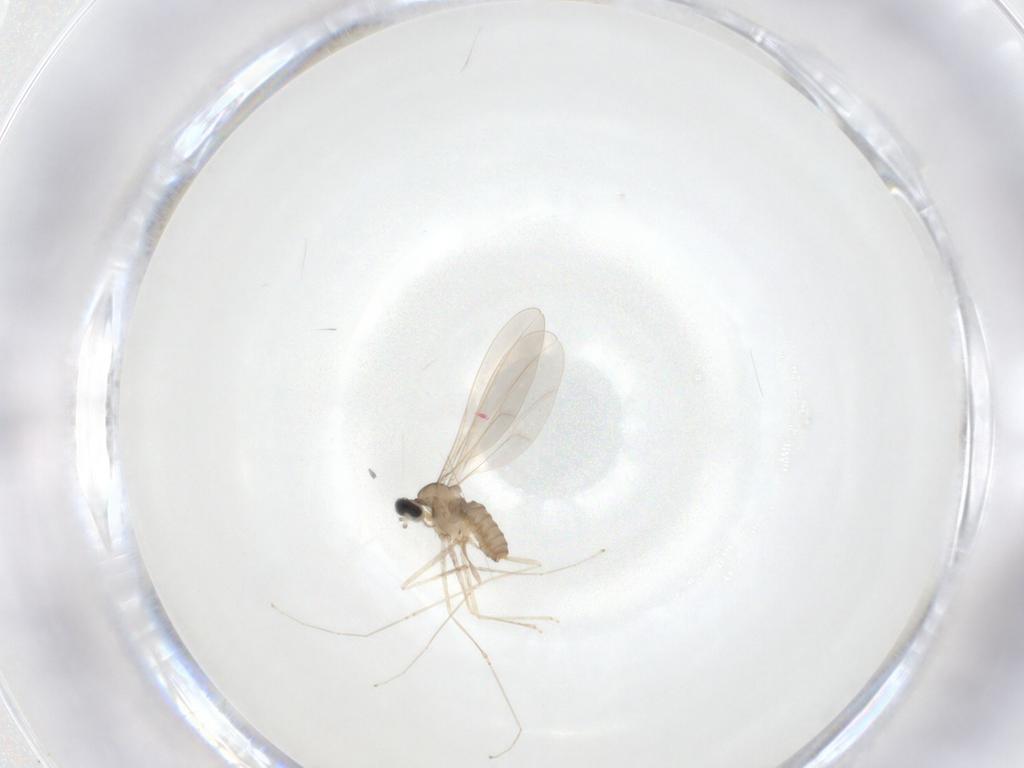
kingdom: Animalia
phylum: Arthropoda
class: Insecta
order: Diptera
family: Cecidomyiidae
